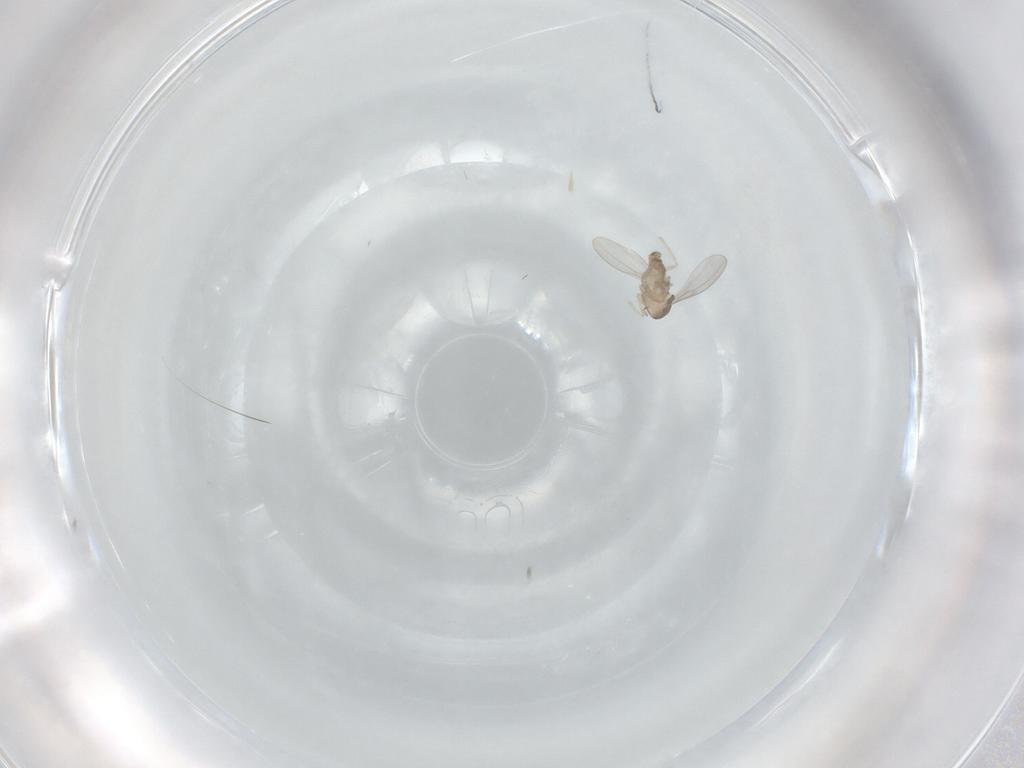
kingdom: Animalia
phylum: Arthropoda
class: Insecta
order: Diptera
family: Cecidomyiidae
